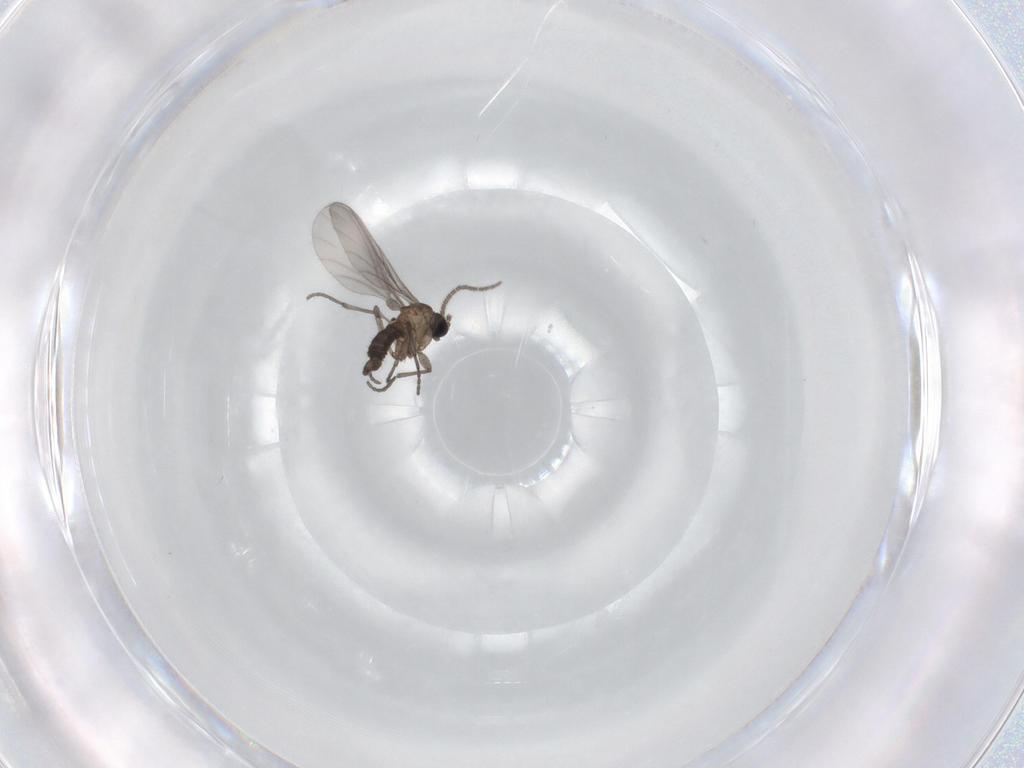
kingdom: Animalia
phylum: Arthropoda
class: Insecta
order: Diptera
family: Sciaridae
